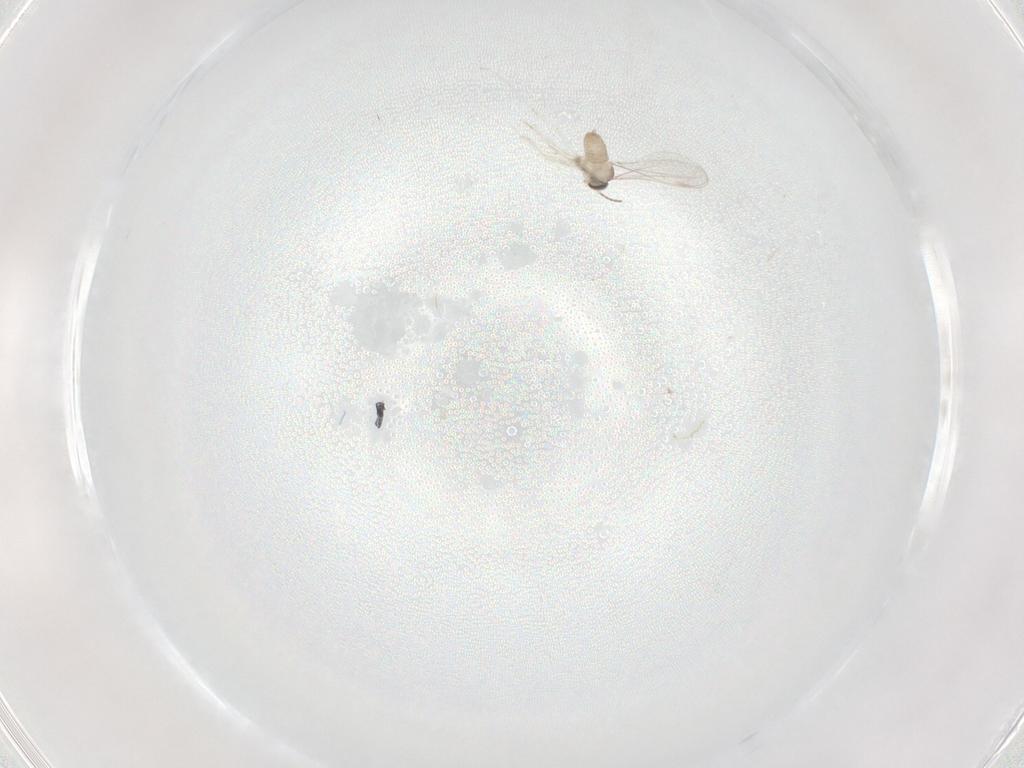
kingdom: Animalia
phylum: Arthropoda
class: Insecta
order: Diptera
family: Cecidomyiidae
